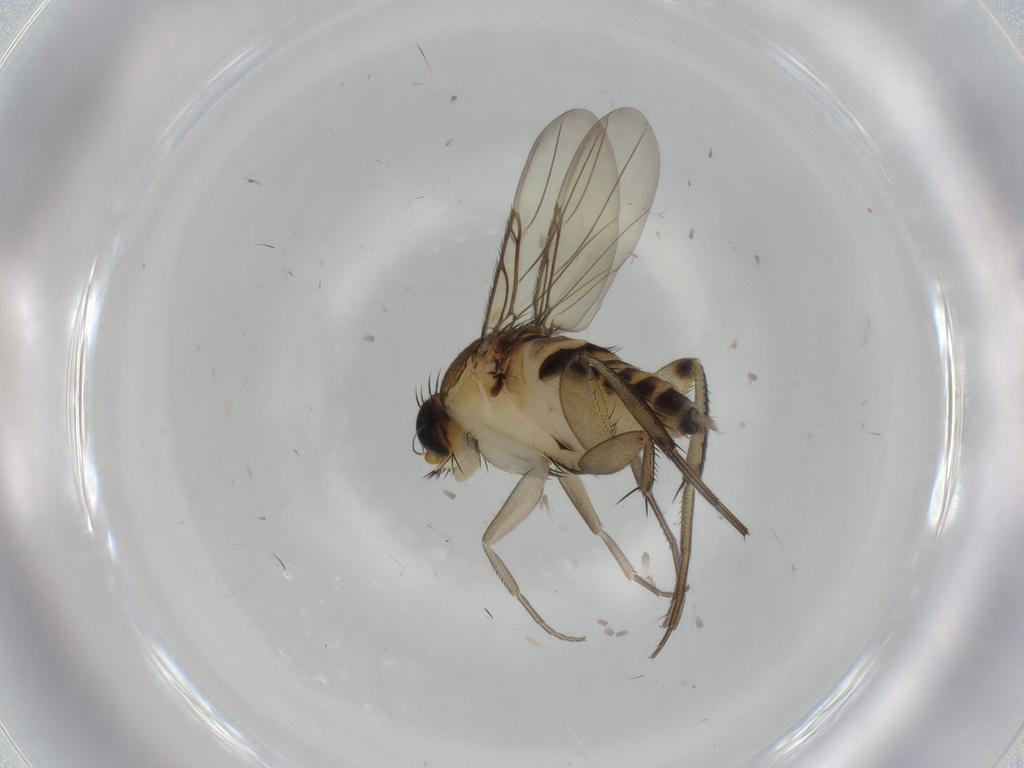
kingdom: Animalia
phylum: Arthropoda
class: Insecta
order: Diptera
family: Phoridae
